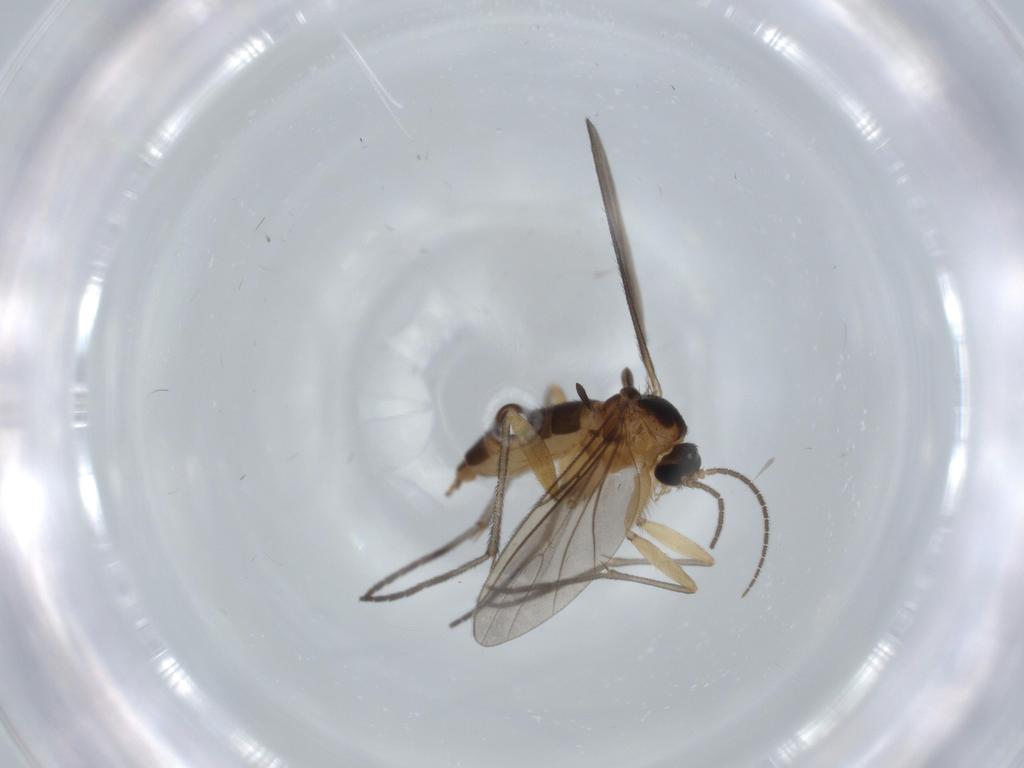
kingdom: Animalia
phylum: Arthropoda
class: Insecta
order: Diptera
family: Sciaridae
